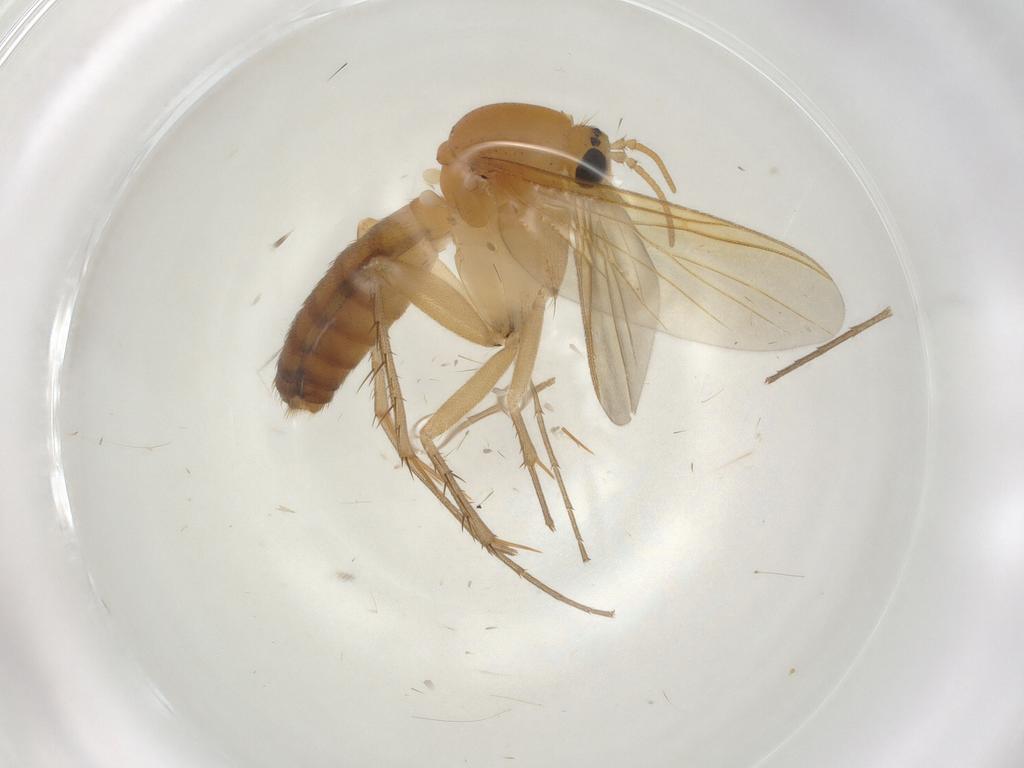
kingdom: Animalia
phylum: Arthropoda
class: Insecta
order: Diptera
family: Mycetophilidae
